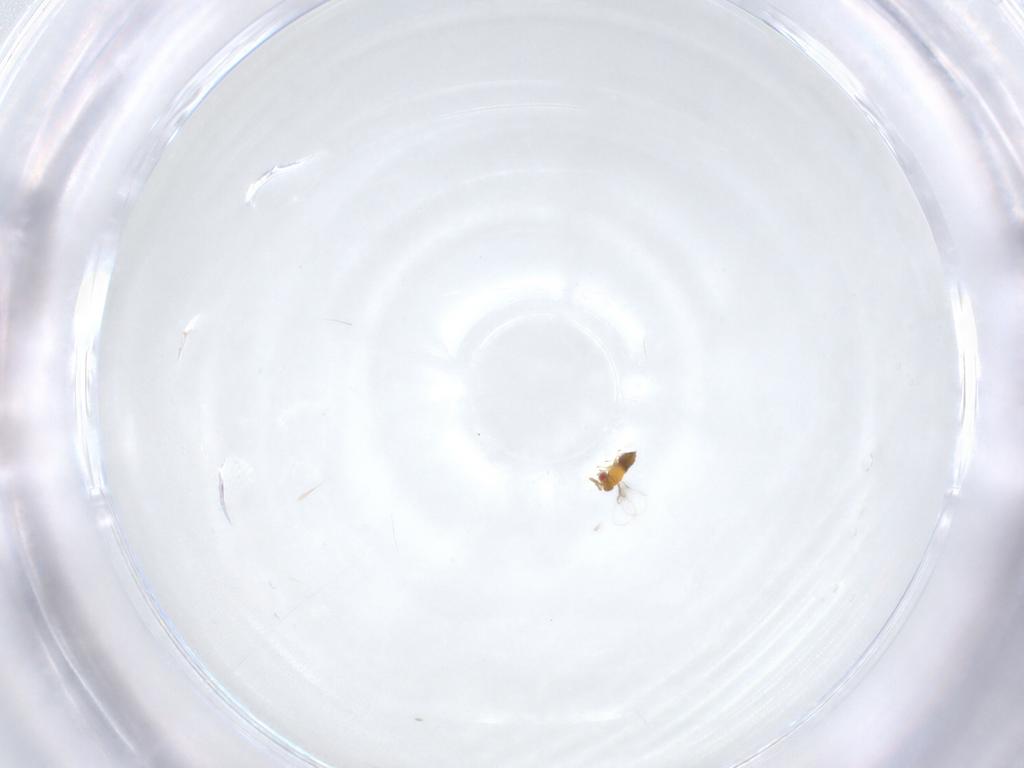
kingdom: Animalia
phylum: Arthropoda
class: Insecta
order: Hymenoptera
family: Trichogrammatidae
